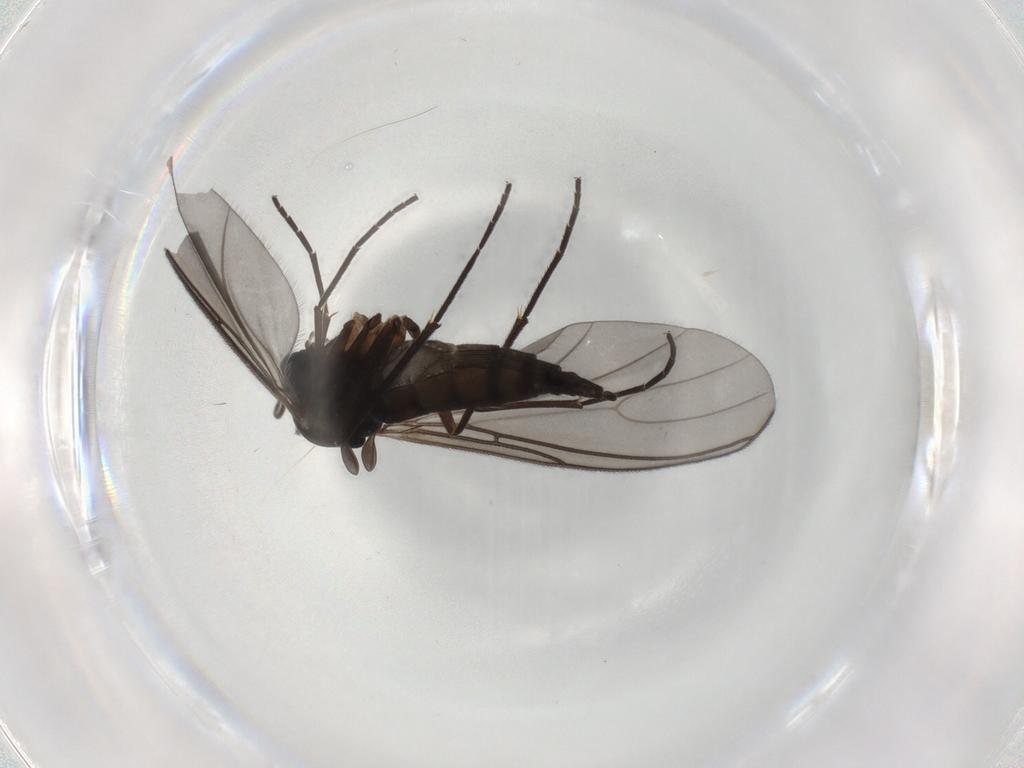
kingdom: Animalia
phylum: Arthropoda
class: Insecta
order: Diptera
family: Sciaridae
